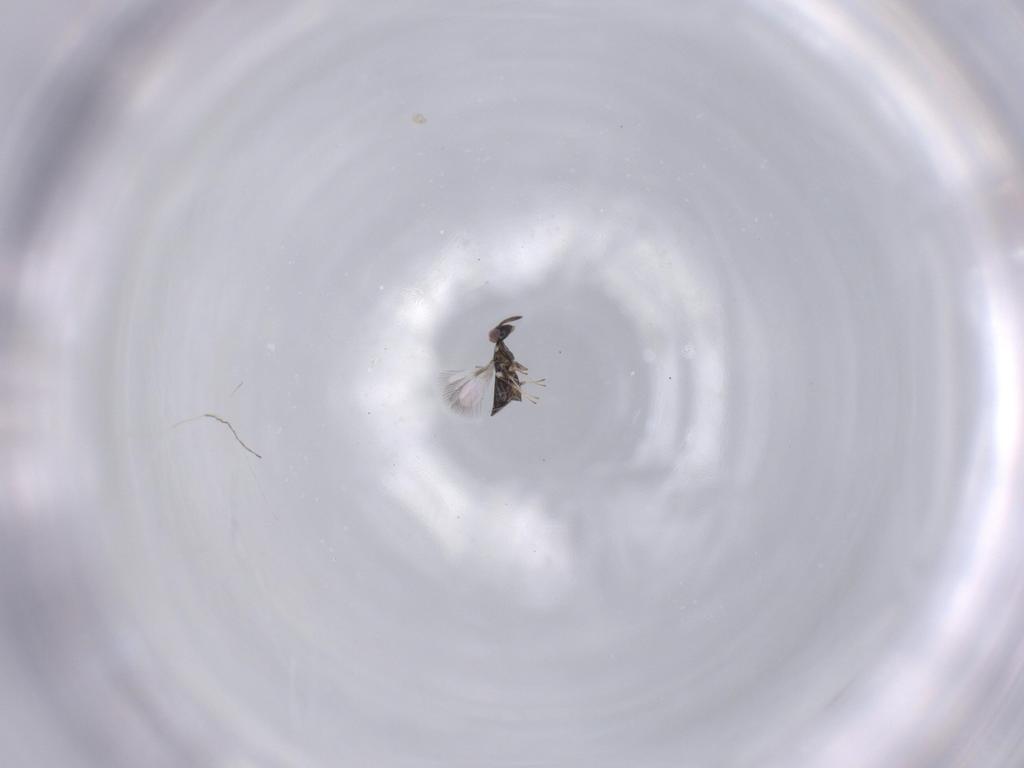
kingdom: Animalia
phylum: Arthropoda
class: Insecta
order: Hymenoptera
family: Signiphoridae
